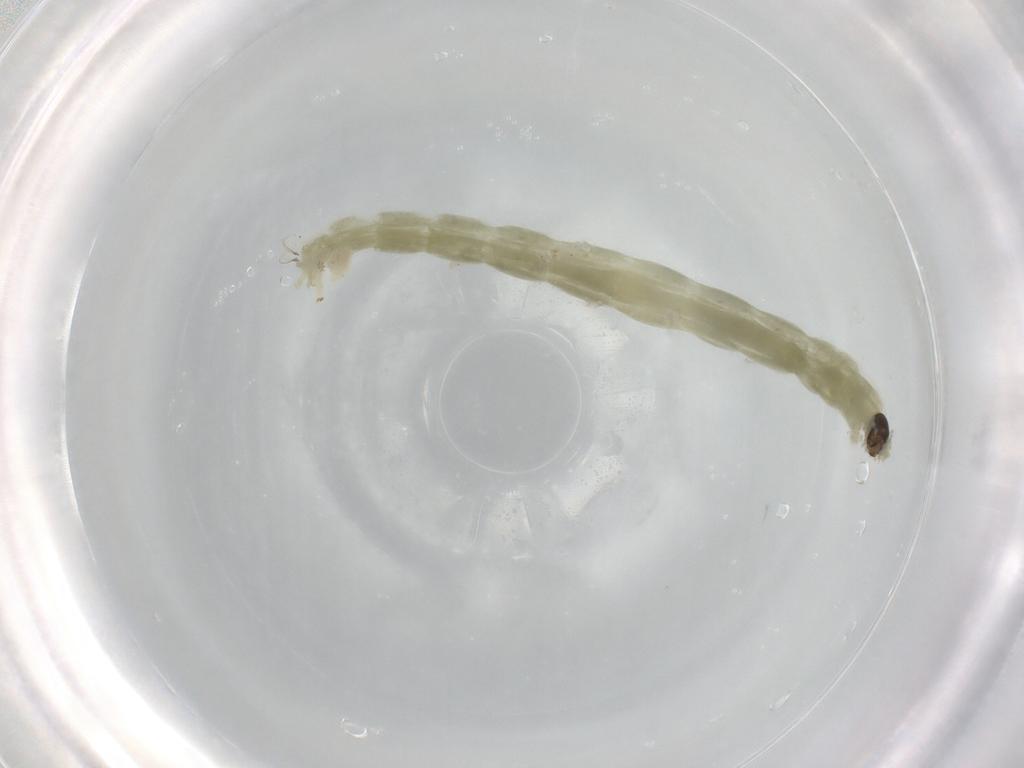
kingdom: Animalia
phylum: Arthropoda
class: Insecta
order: Diptera
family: Chironomidae
